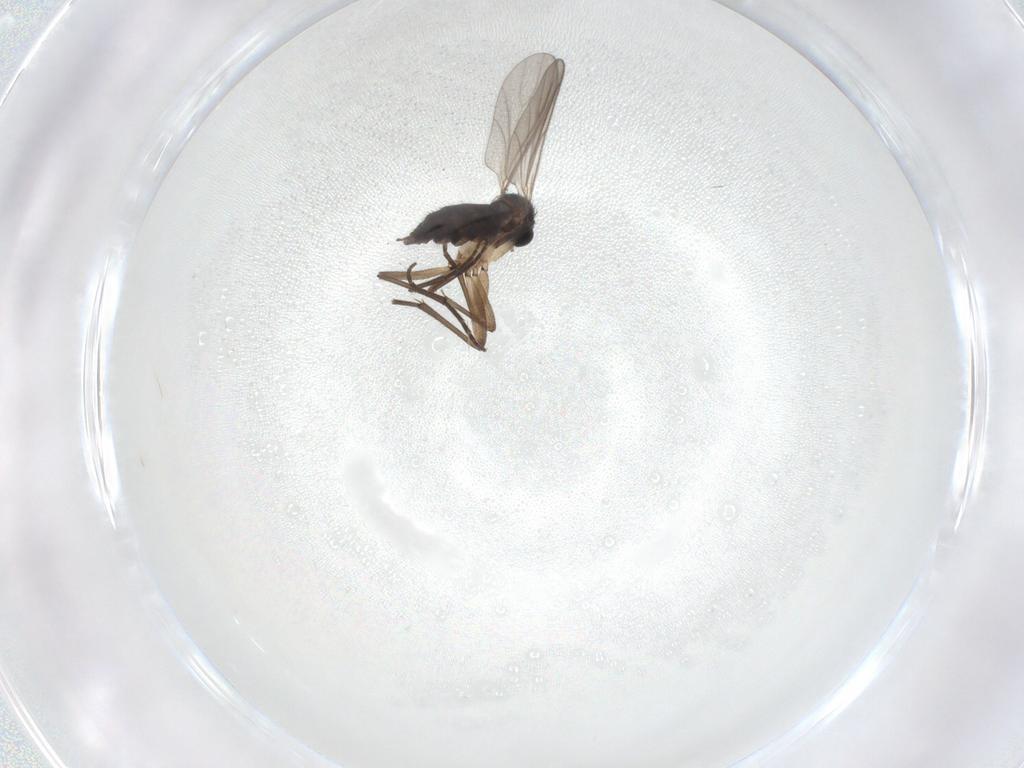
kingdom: Animalia
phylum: Arthropoda
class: Insecta
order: Diptera
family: Sciaridae
